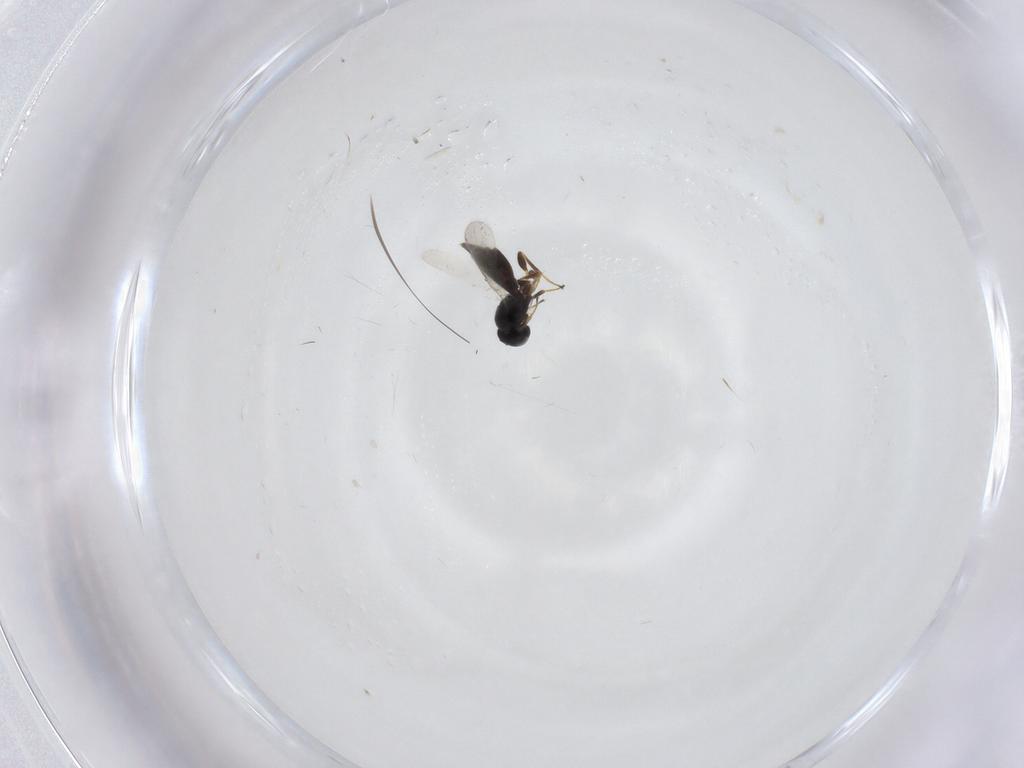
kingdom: Animalia
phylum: Arthropoda
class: Insecta
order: Hymenoptera
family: Platygastridae
